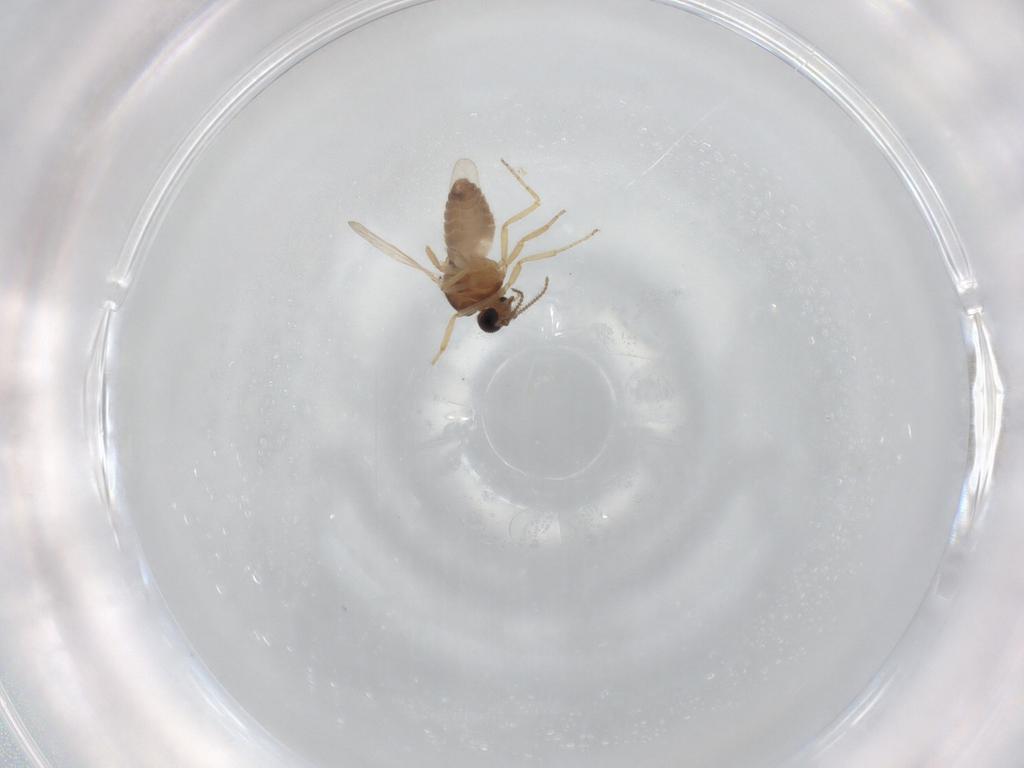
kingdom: Animalia
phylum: Arthropoda
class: Insecta
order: Diptera
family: Ceratopogonidae
